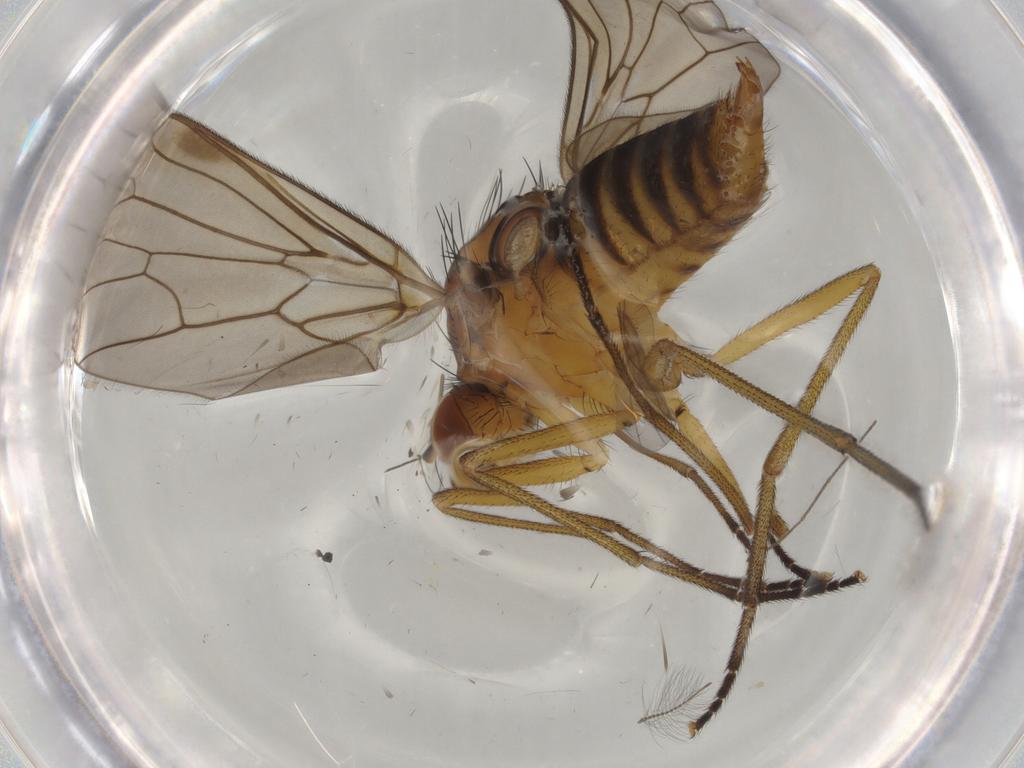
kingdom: Animalia
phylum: Arthropoda
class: Insecta
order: Diptera
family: Brachystomatidae
